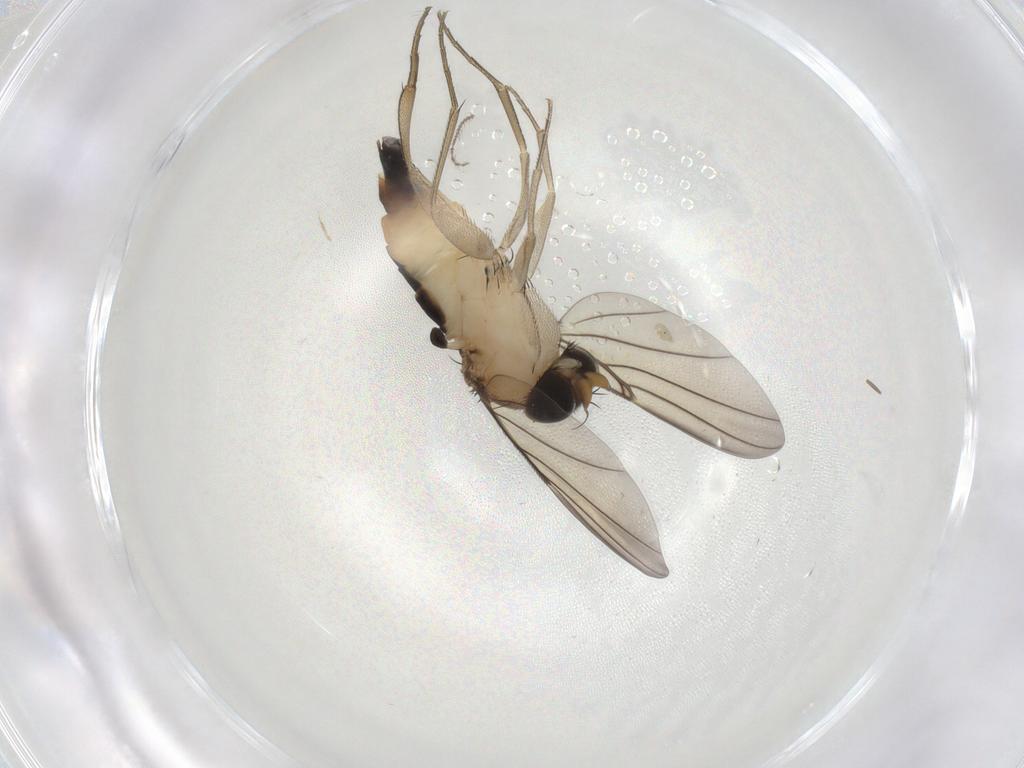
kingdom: Animalia
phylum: Arthropoda
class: Insecta
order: Diptera
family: Phoridae
